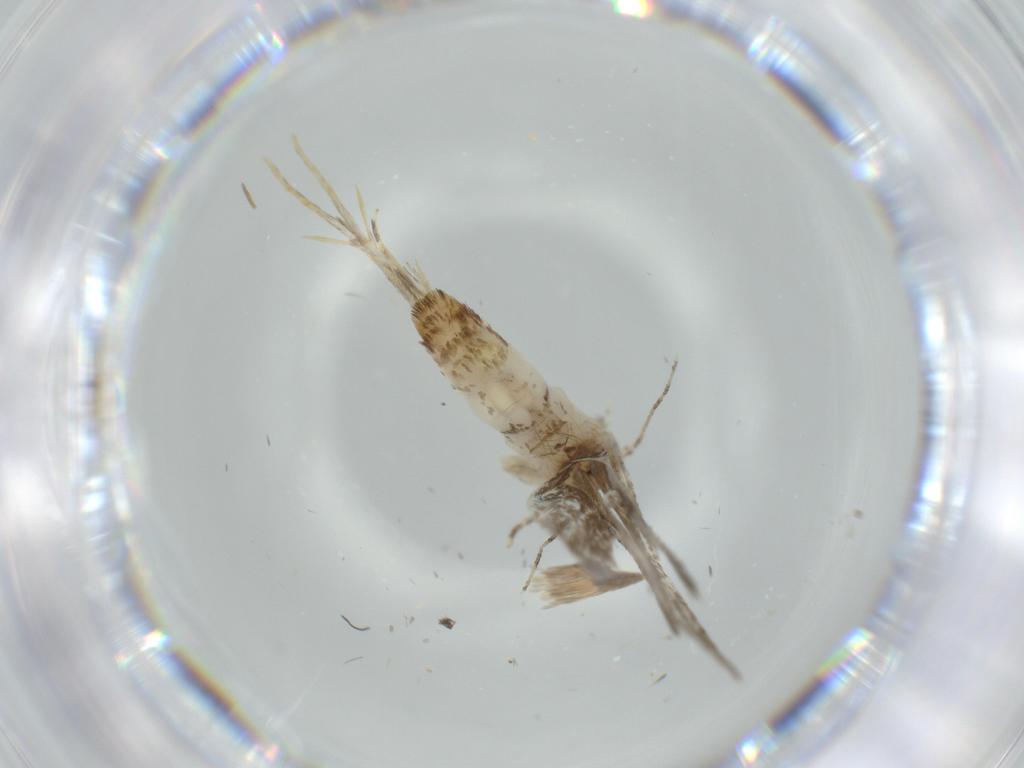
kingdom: Animalia
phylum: Arthropoda
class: Insecta
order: Lepidoptera
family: Tineidae
